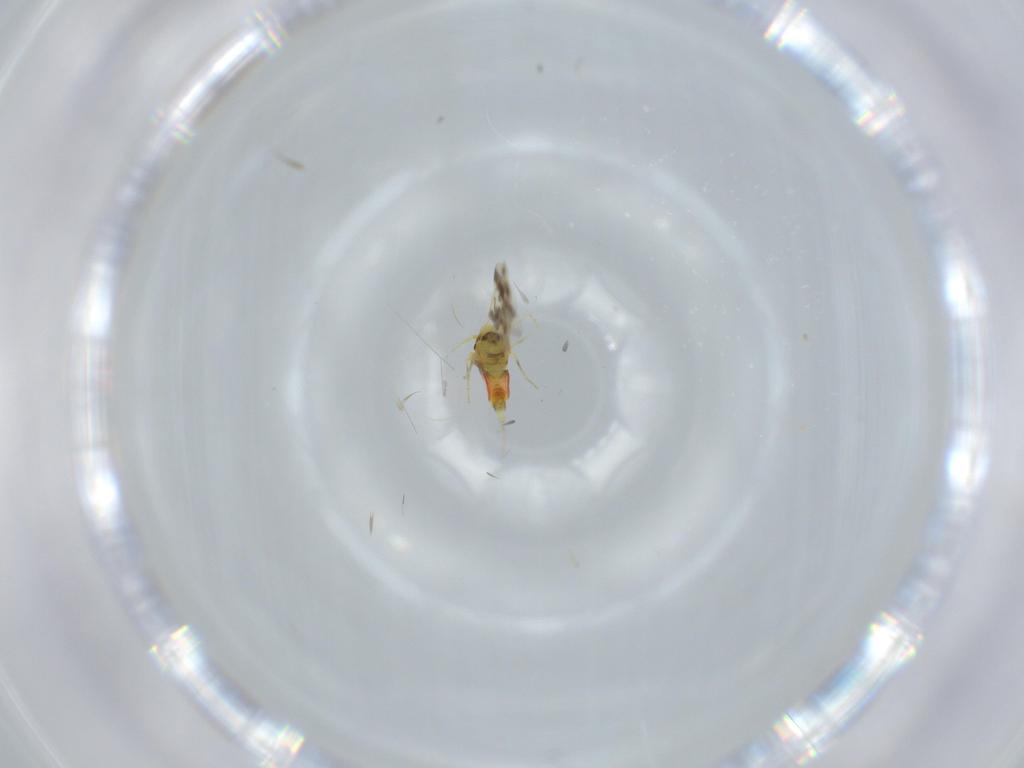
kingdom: Animalia
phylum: Arthropoda
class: Insecta
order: Hemiptera
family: Aleyrodidae
